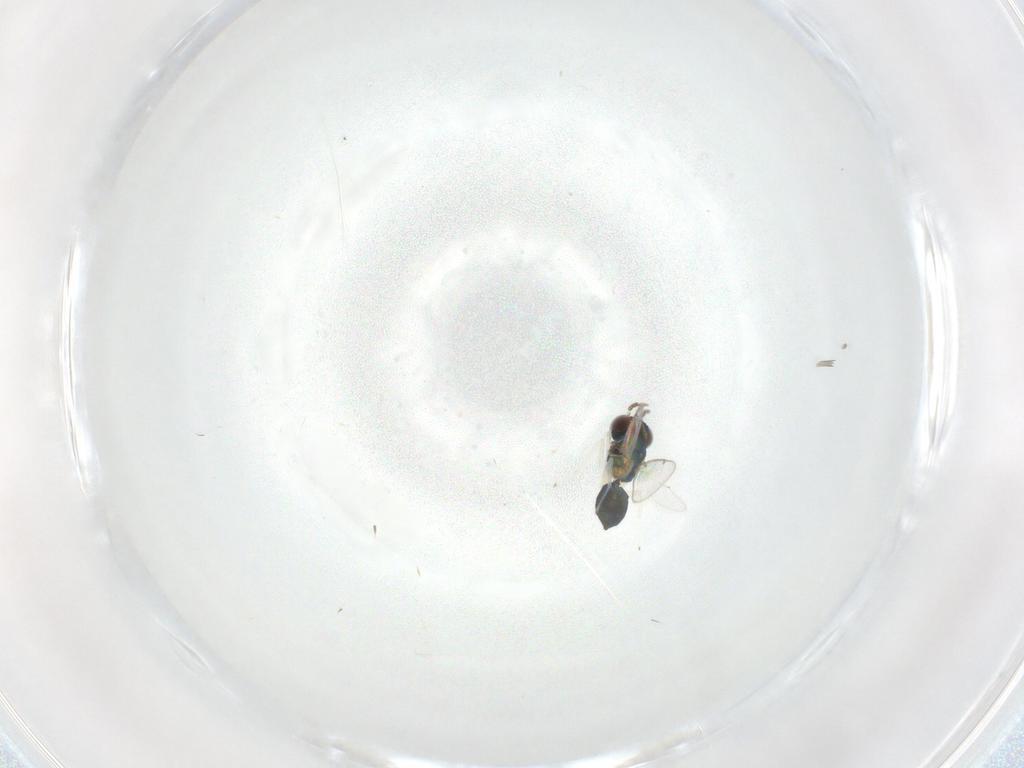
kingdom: Animalia
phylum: Arthropoda
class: Insecta
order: Hymenoptera
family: Eulophidae
